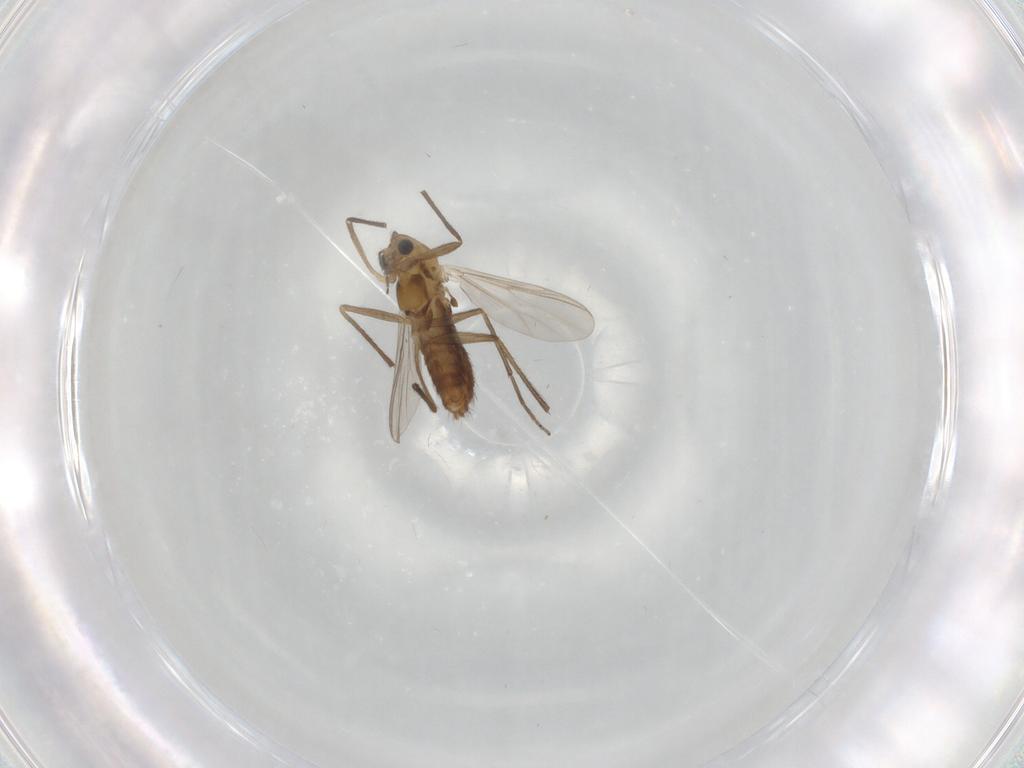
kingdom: Animalia
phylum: Arthropoda
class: Insecta
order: Diptera
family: Chironomidae
